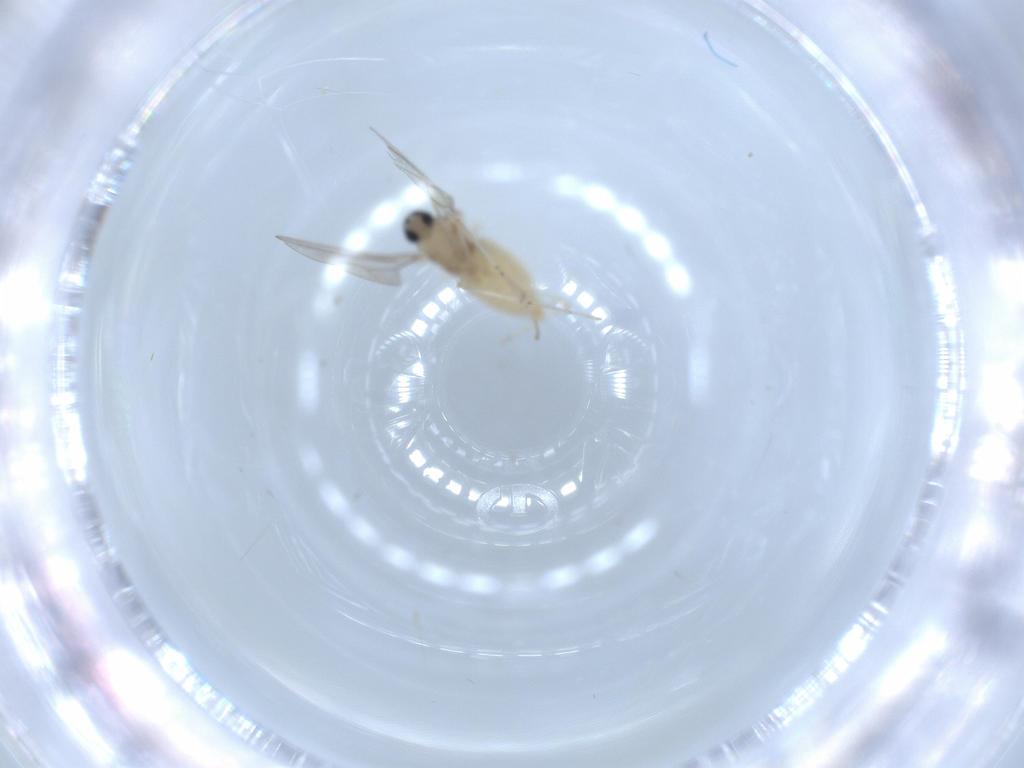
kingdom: Animalia
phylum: Arthropoda
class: Insecta
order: Diptera
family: Cecidomyiidae
